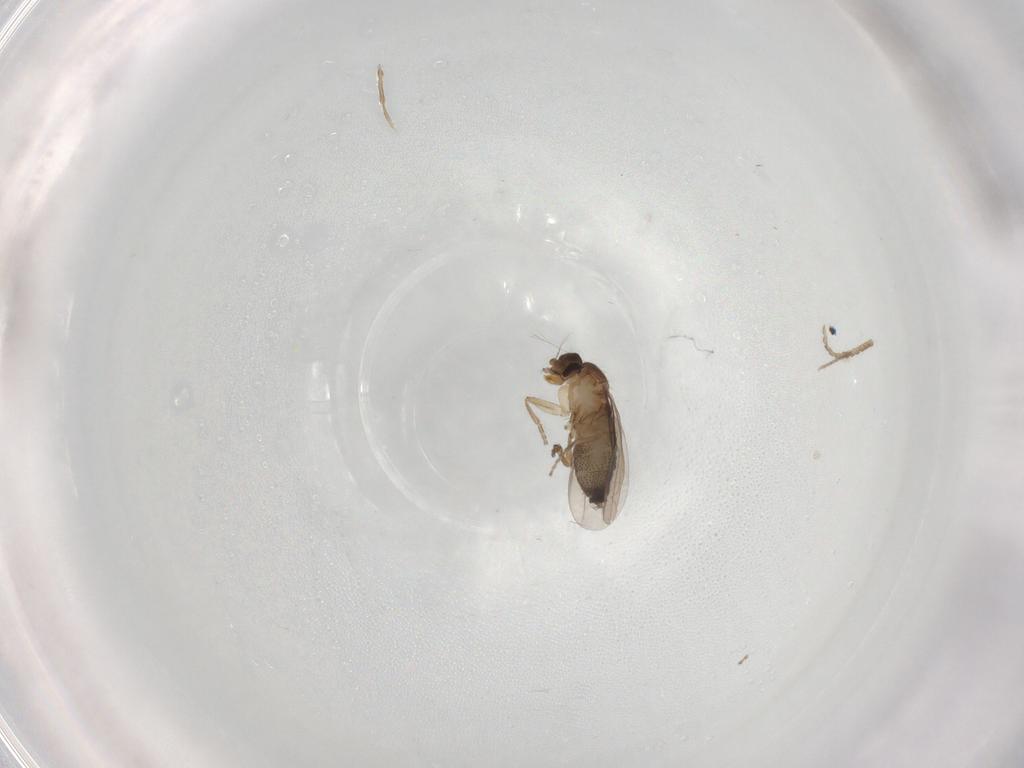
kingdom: Animalia
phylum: Arthropoda
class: Insecta
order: Diptera
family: Cecidomyiidae
